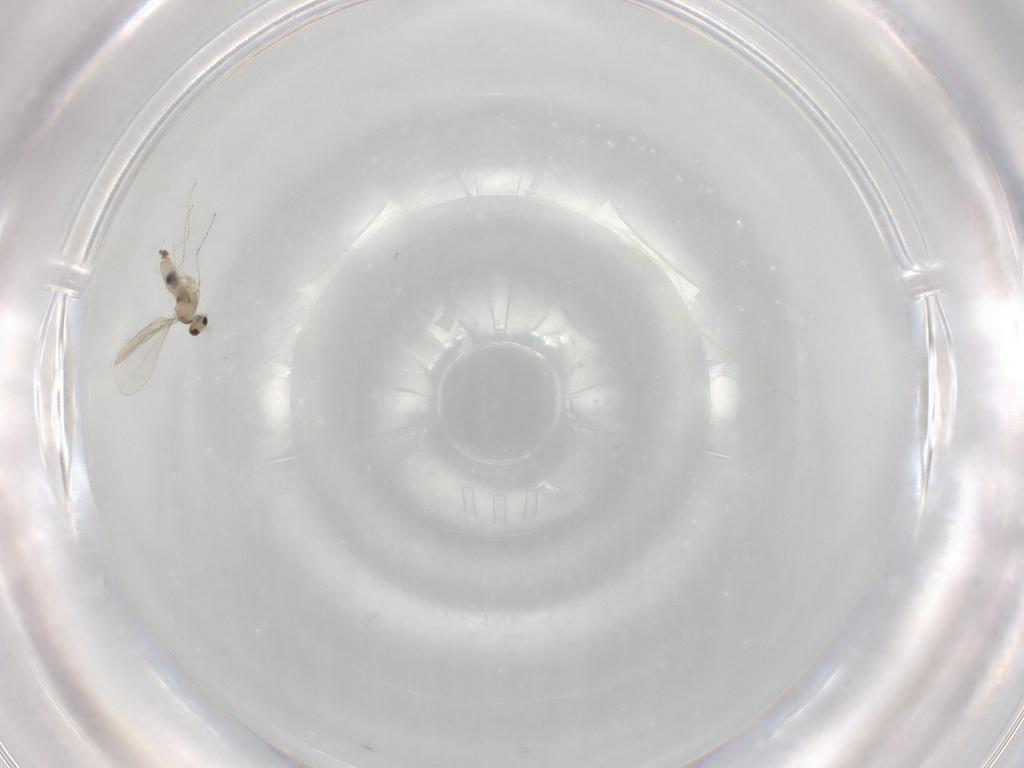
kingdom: Animalia
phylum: Arthropoda
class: Insecta
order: Diptera
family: Cecidomyiidae
